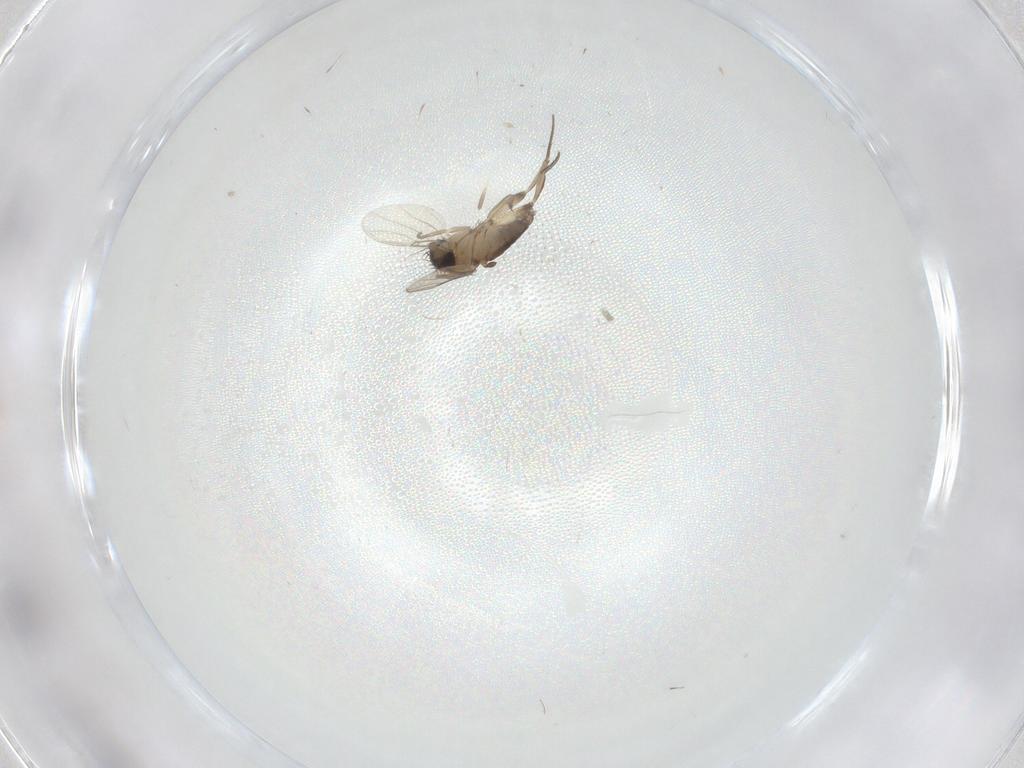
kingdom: Animalia
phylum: Arthropoda
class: Insecta
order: Diptera
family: Phoridae
